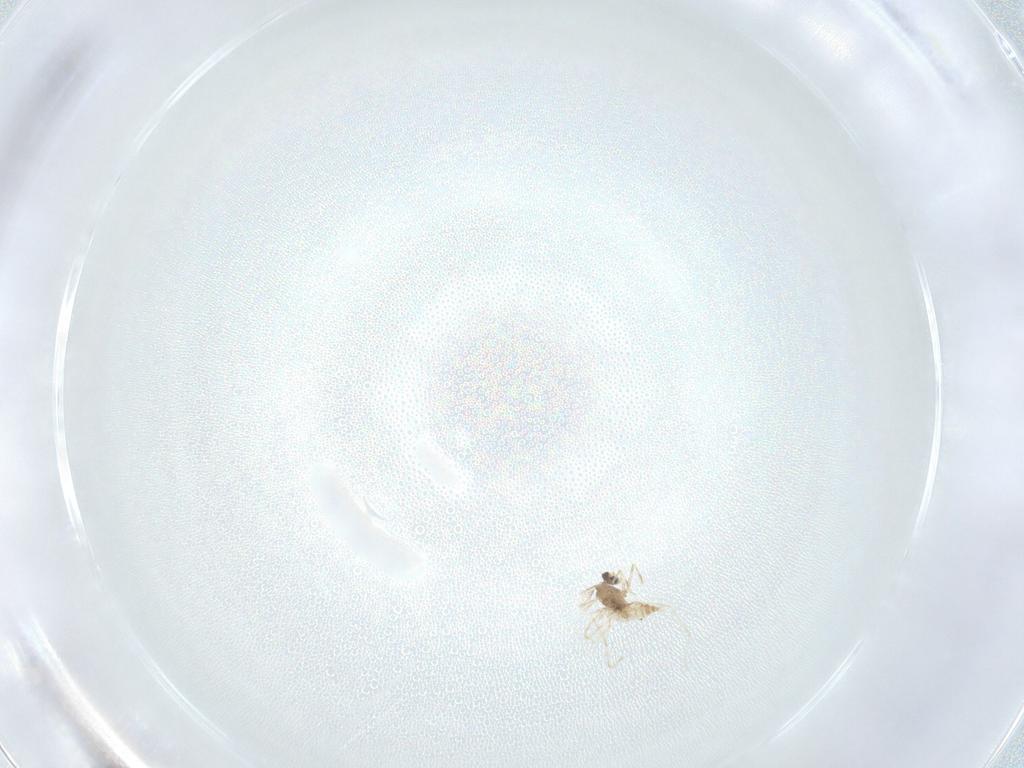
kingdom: Animalia
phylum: Arthropoda
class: Insecta
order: Diptera
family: Cecidomyiidae
